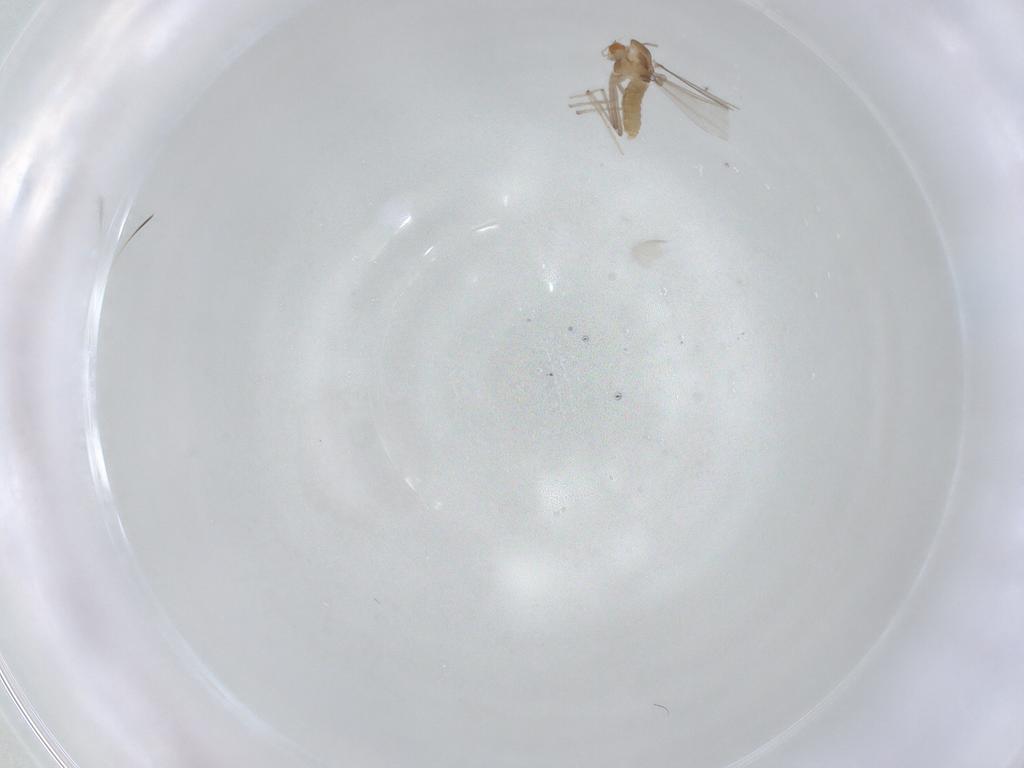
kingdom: Animalia
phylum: Arthropoda
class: Insecta
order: Diptera
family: Chironomidae
